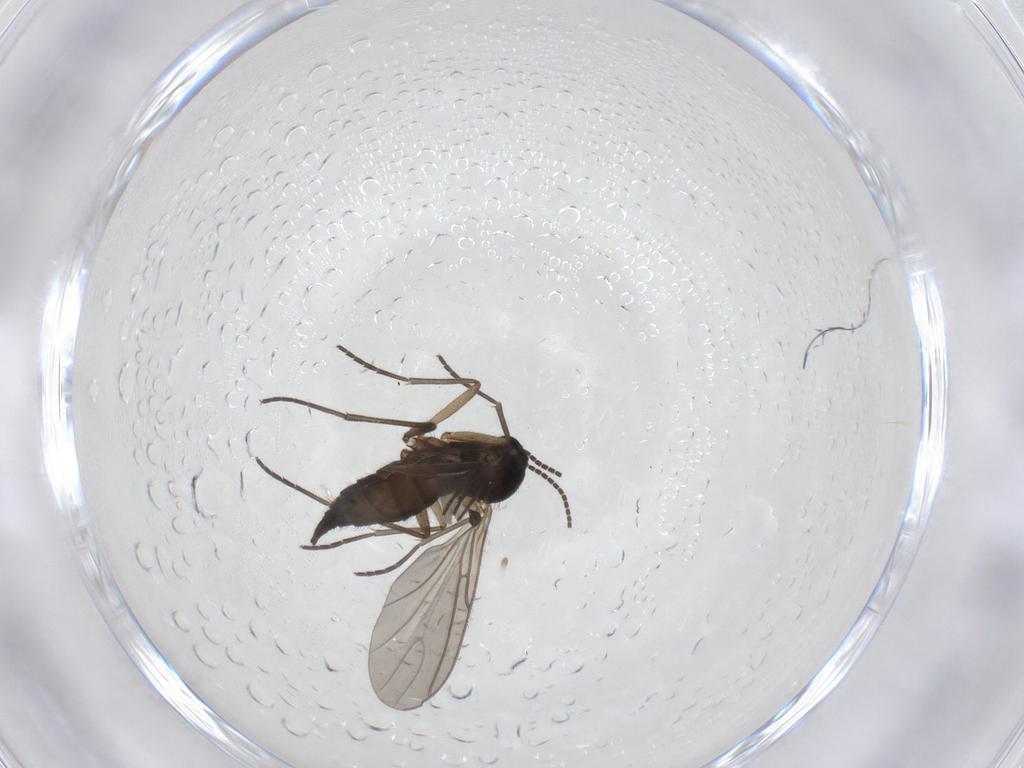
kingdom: Animalia
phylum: Arthropoda
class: Insecta
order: Diptera
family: Sciaridae
